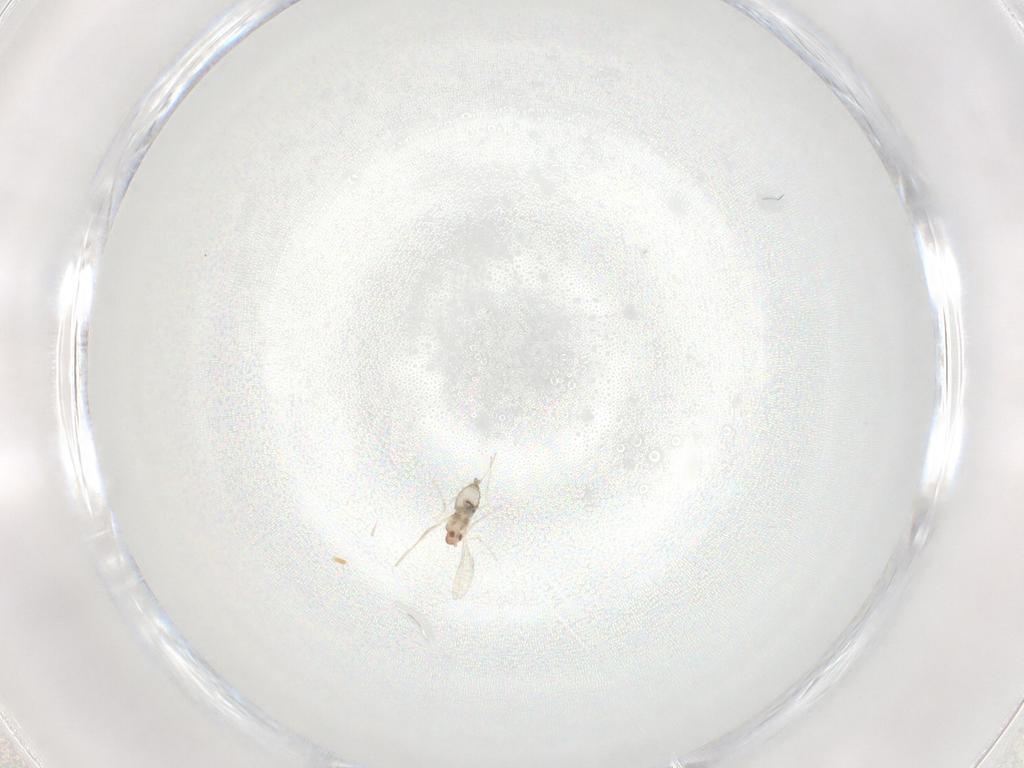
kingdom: Animalia
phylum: Arthropoda
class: Insecta
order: Diptera
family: Cecidomyiidae
